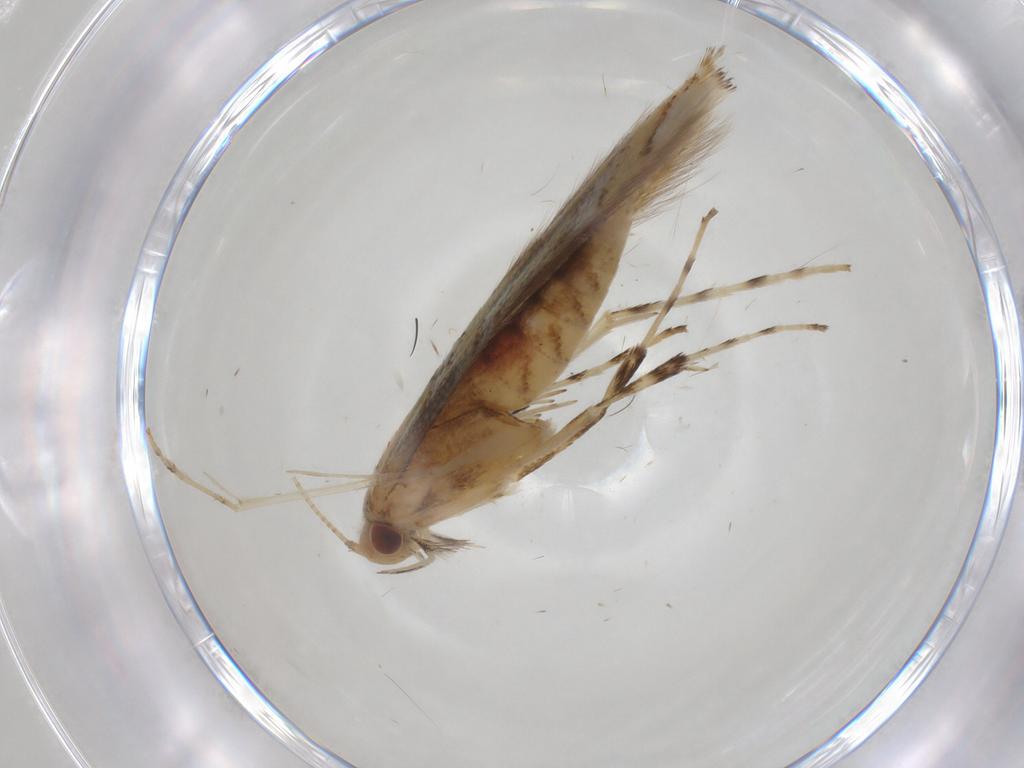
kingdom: Animalia
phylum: Arthropoda
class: Insecta
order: Lepidoptera
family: Gracillariidae
